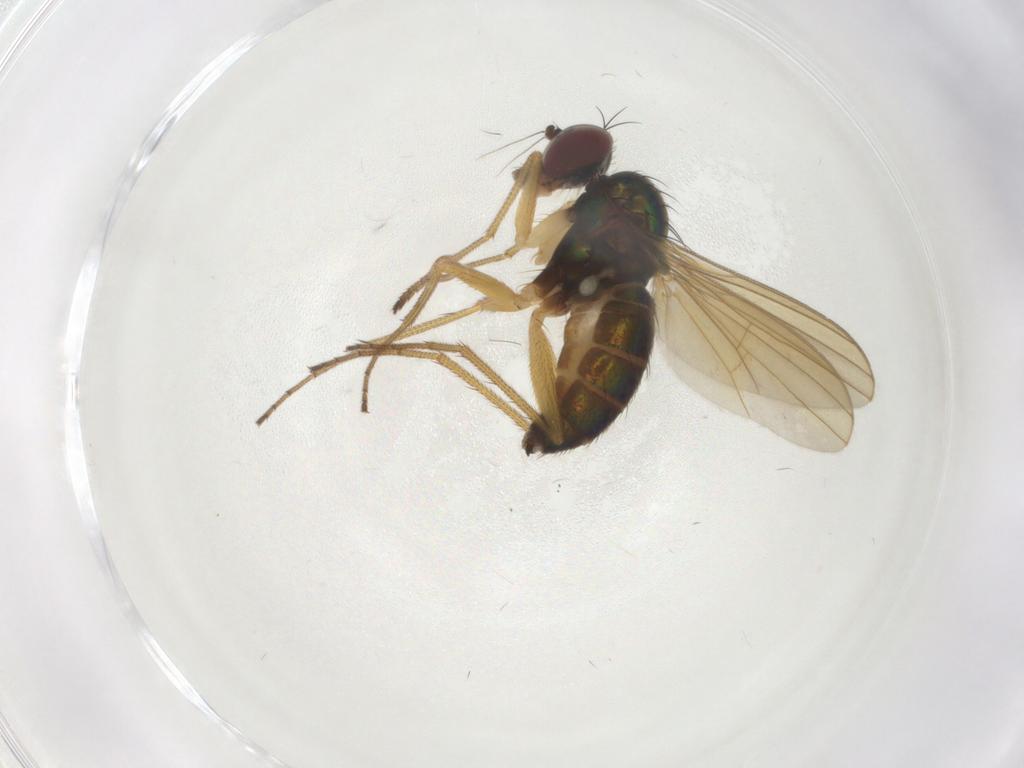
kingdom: Animalia
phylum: Arthropoda
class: Insecta
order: Diptera
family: Dolichopodidae
